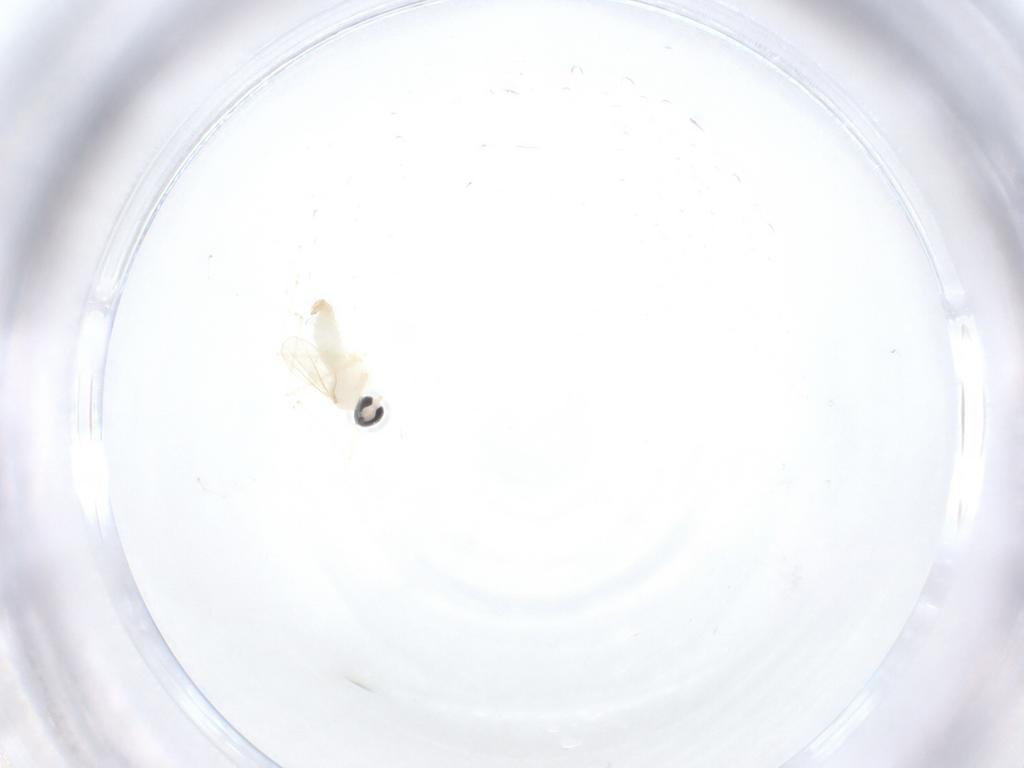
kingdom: Animalia
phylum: Arthropoda
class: Insecta
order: Diptera
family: Cecidomyiidae
